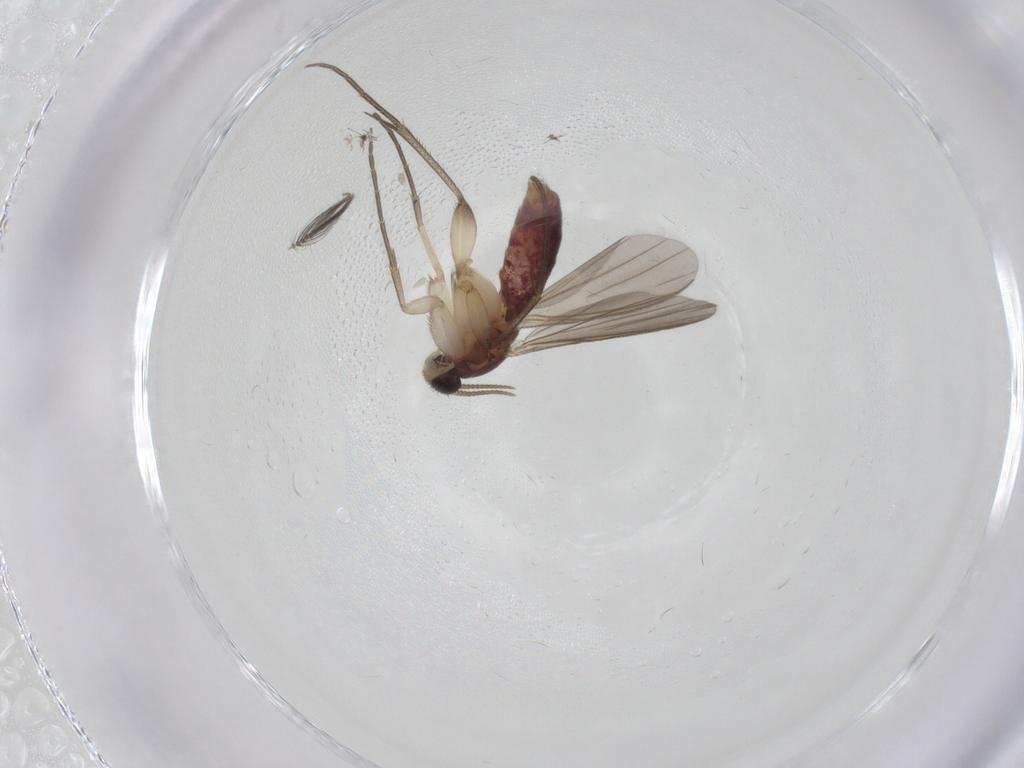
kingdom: Animalia
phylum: Arthropoda
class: Insecta
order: Diptera
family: Mycetophilidae
